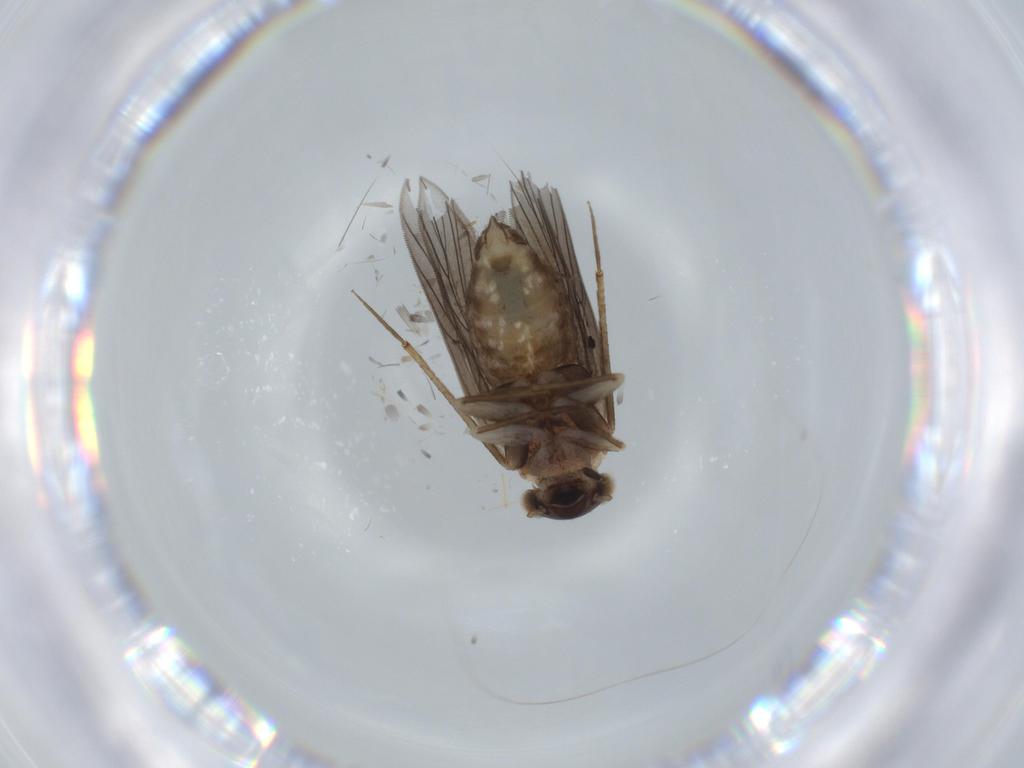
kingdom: Animalia
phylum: Arthropoda
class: Insecta
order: Psocodea
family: Lepidopsocidae
